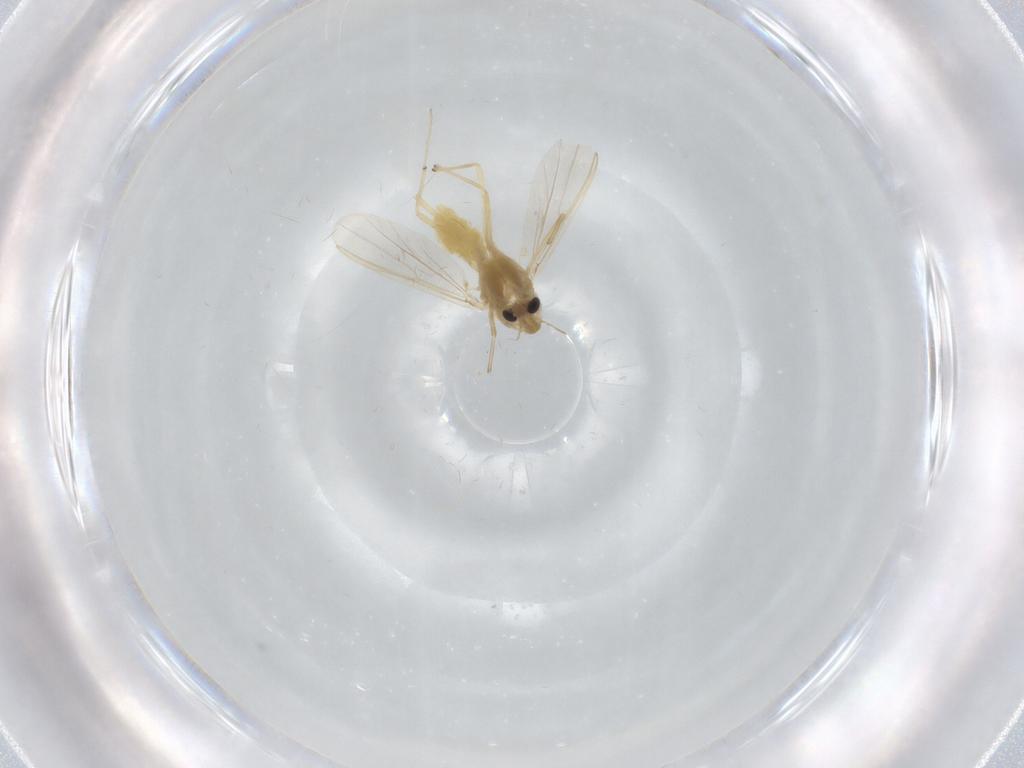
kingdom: Animalia
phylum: Arthropoda
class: Insecta
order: Diptera
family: Chironomidae
